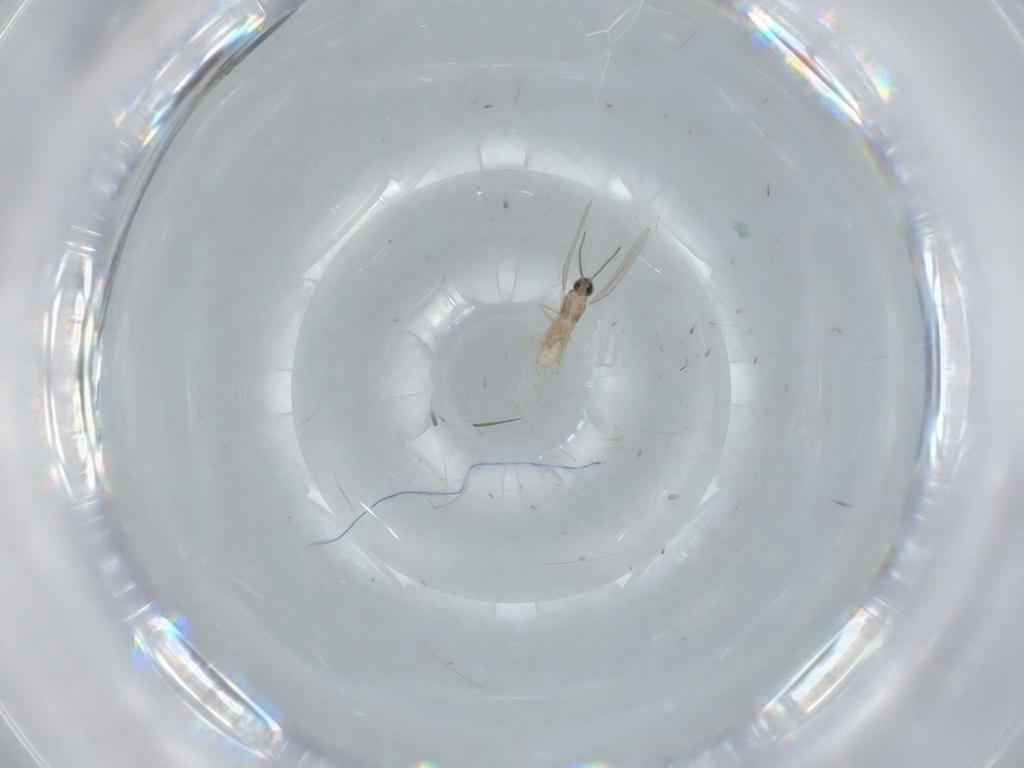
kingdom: Animalia
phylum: Arthropoda
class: Insecta
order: Diptera
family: Cecidomyiidae
